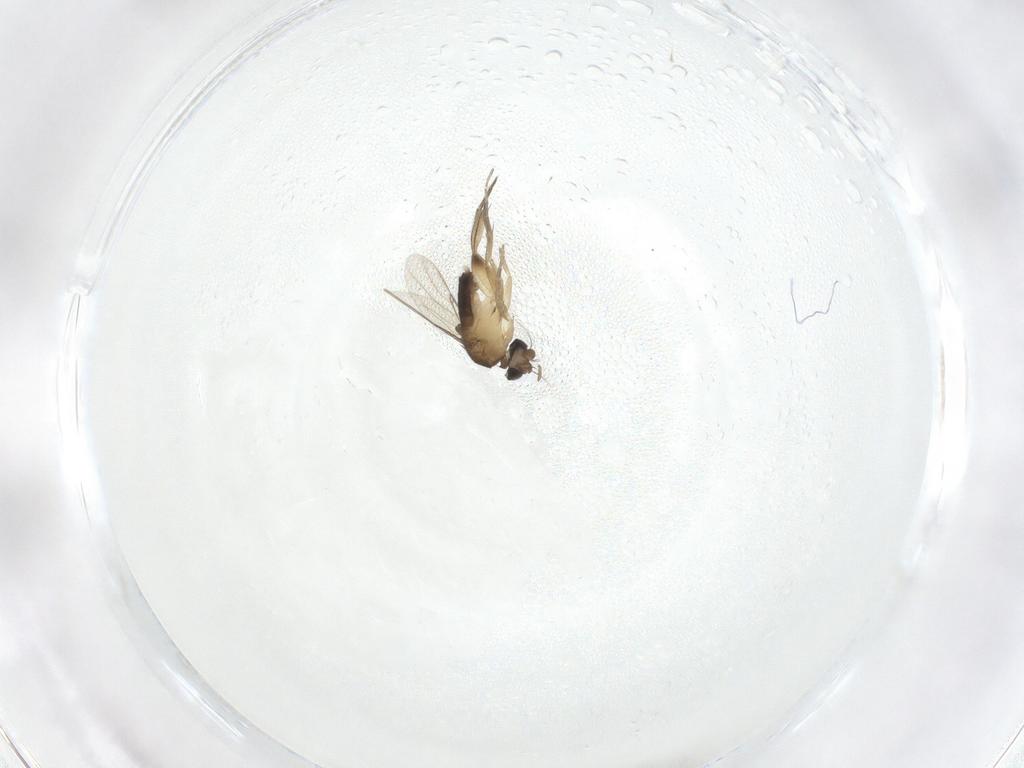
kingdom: Animalia
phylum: Arthropoda
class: Insecta
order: Diptera
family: Phoridae
